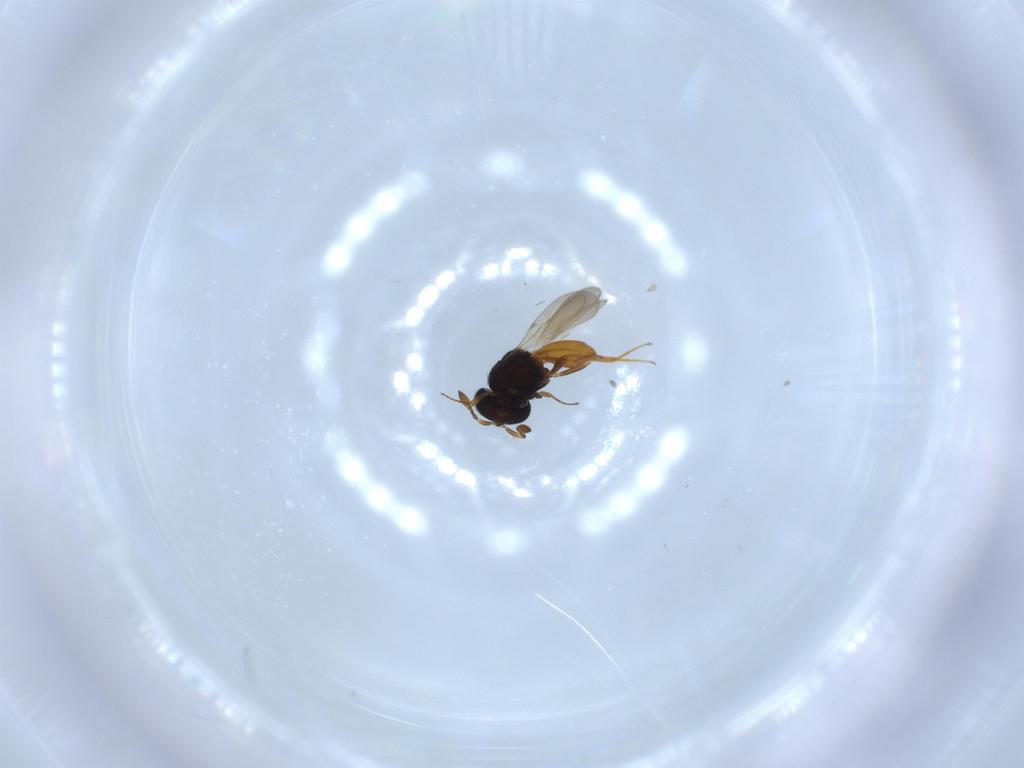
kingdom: Animalia
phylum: Arthropoda
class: Insecta
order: Hymenoptera
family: Scelionidae
